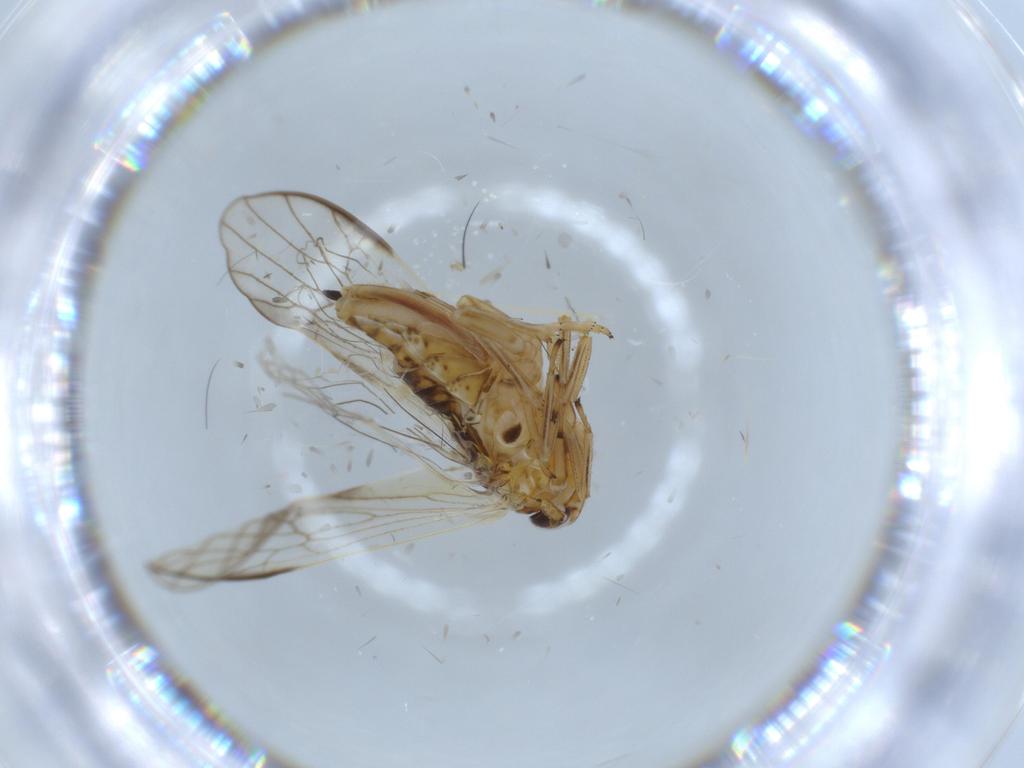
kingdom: Animalia
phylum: Arthropoda
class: Insecta
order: Hemiptera
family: Delphacidae
